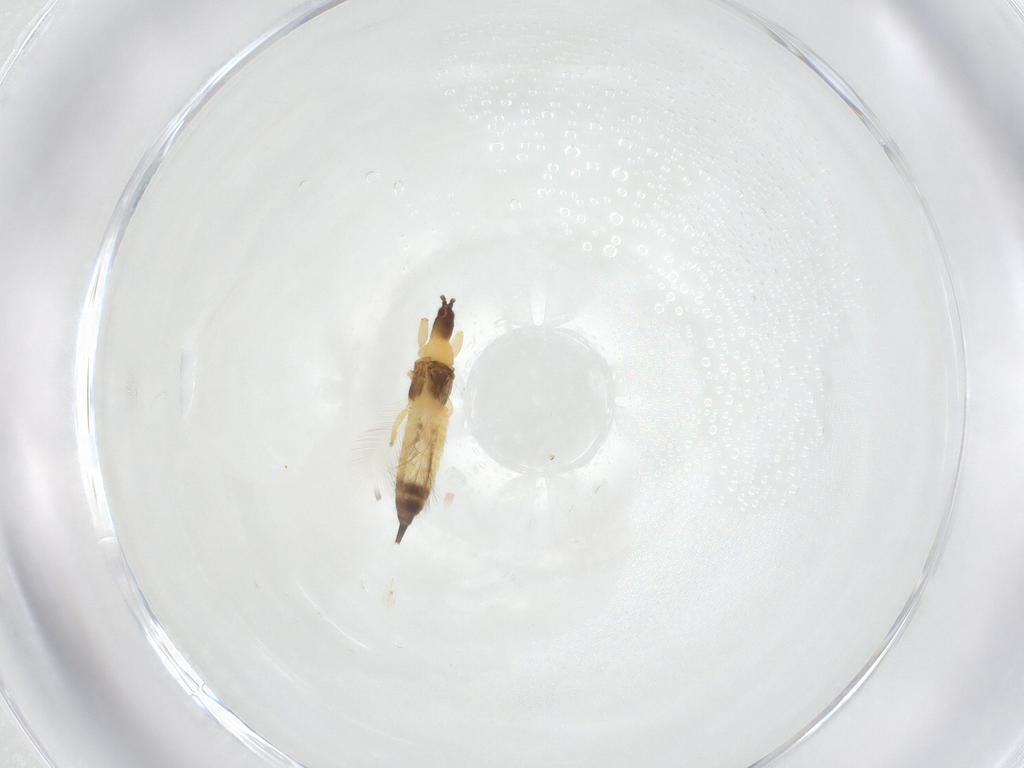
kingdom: Animalia
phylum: Arthropoda
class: Insecta
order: Thysanoptera
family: Phlaeothripidae
